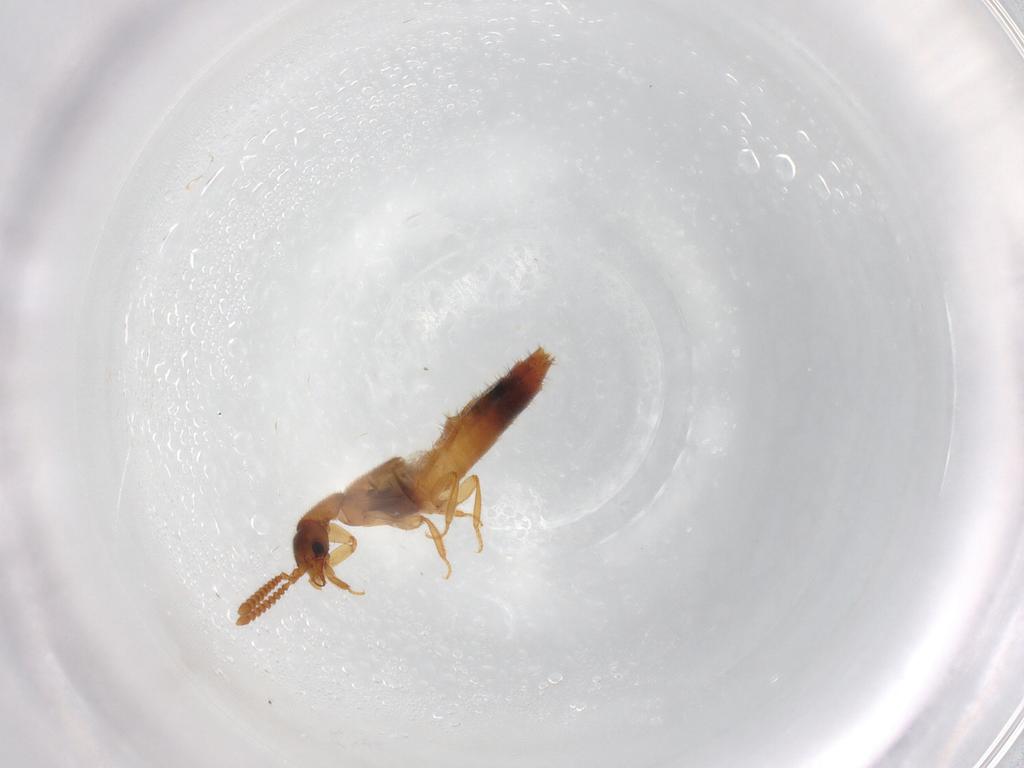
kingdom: Animalia
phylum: Arthropoda
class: Insecta
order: Coleoptera
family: Staphylinidae
